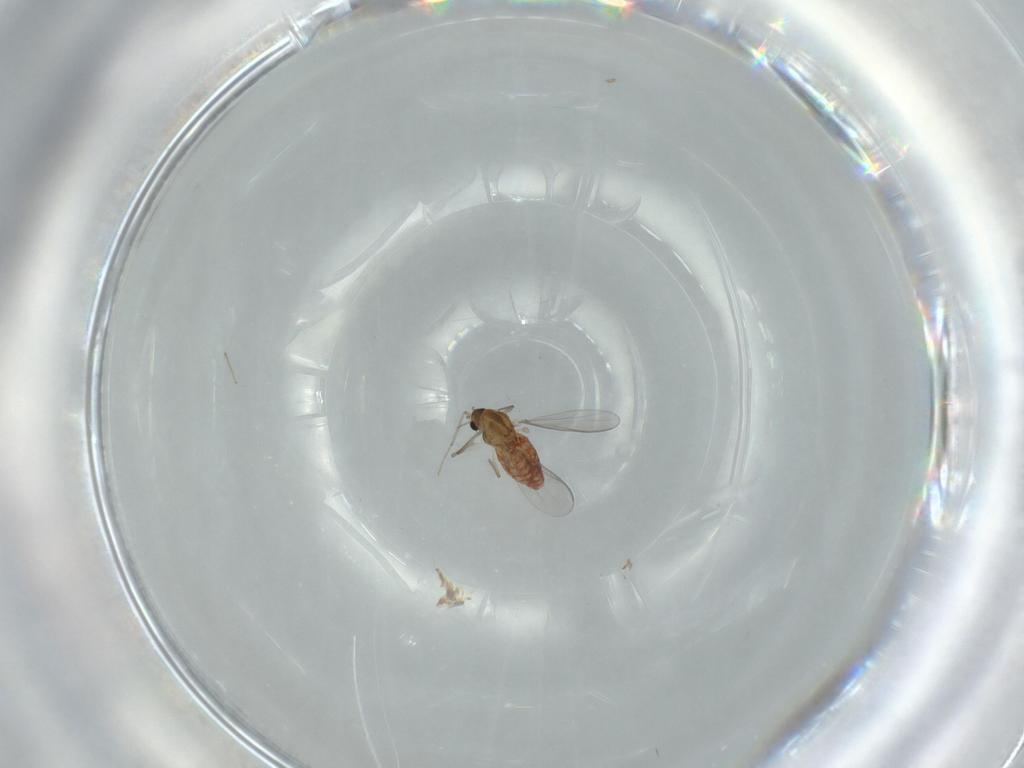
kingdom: Animalia
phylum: Arthropoda
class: Insecta
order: Diptera
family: Chironomidae
